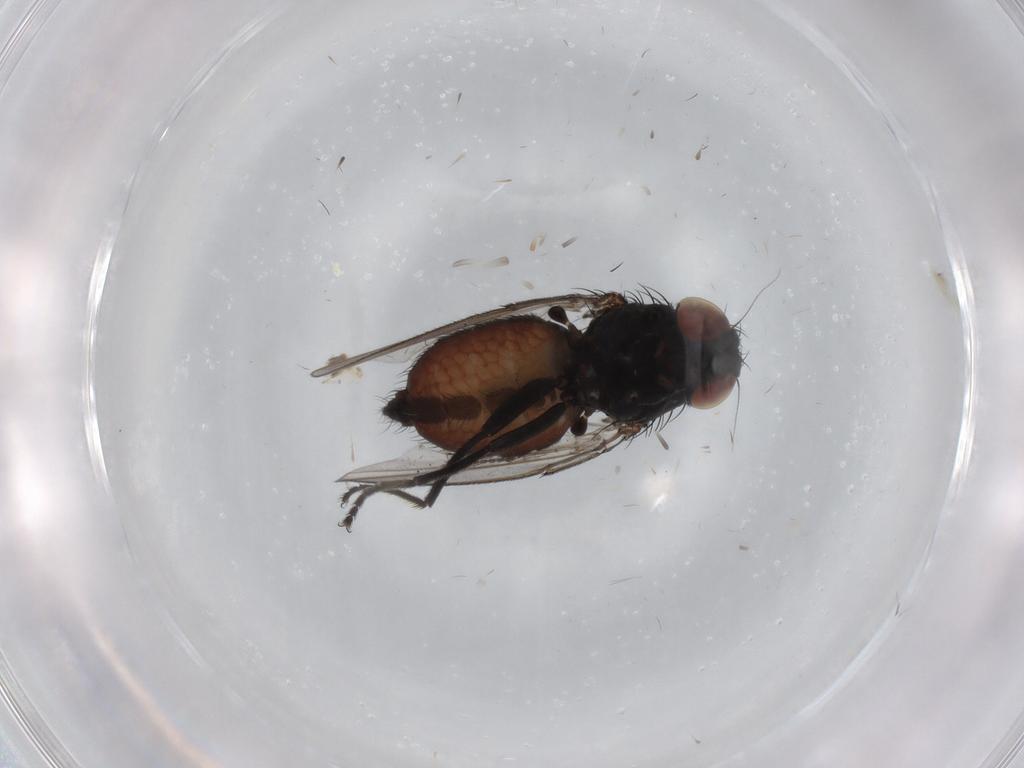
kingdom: Animalia
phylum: Arthropoda
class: Insecta
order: Diptera
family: Milichiidae
